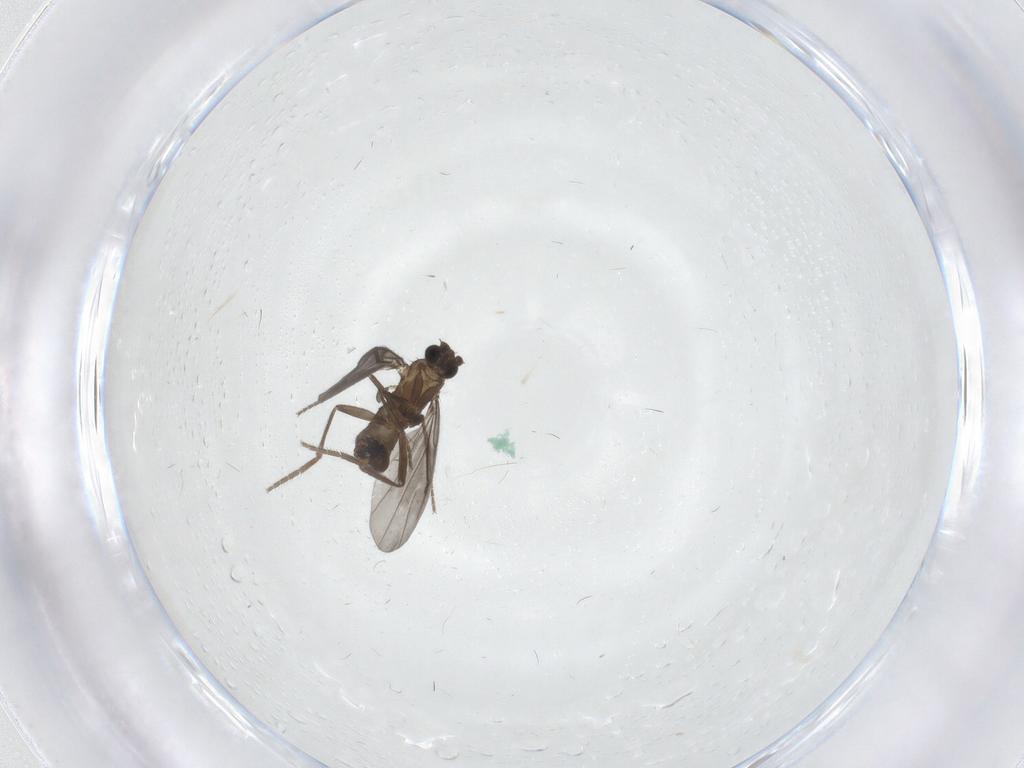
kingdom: Animalia
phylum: Arthropoda
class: Insecta
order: Diptera
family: Phoridae
